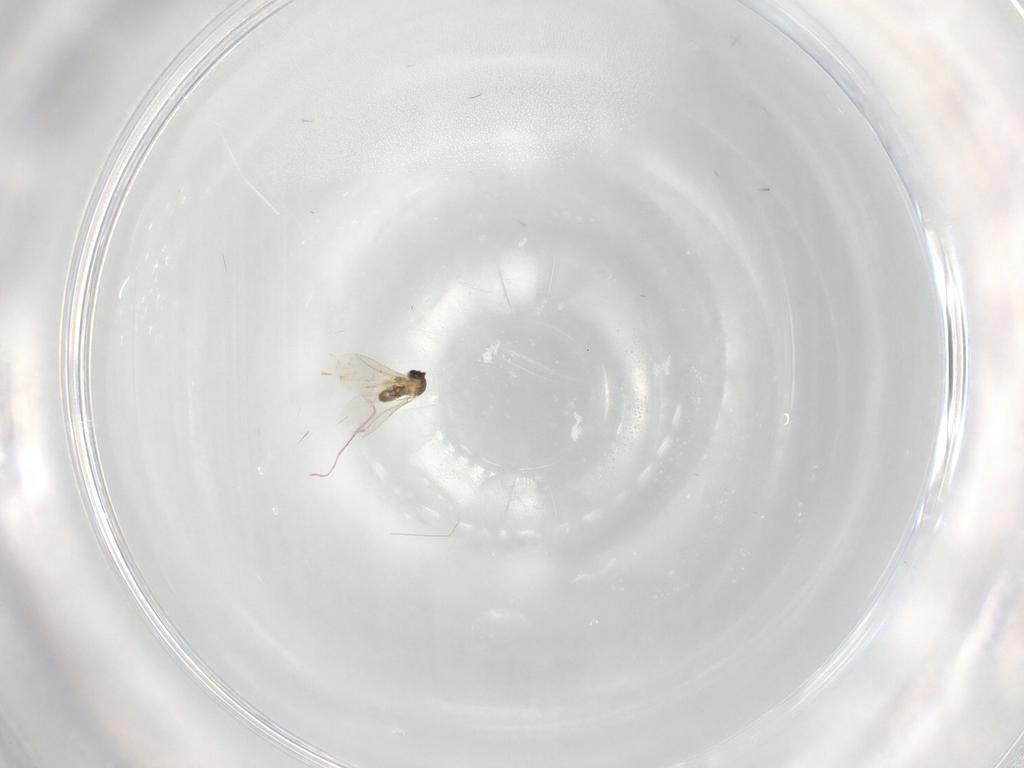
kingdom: Animalia
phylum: Arthropoda
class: Insecta
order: Diptera
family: Sciaridae
